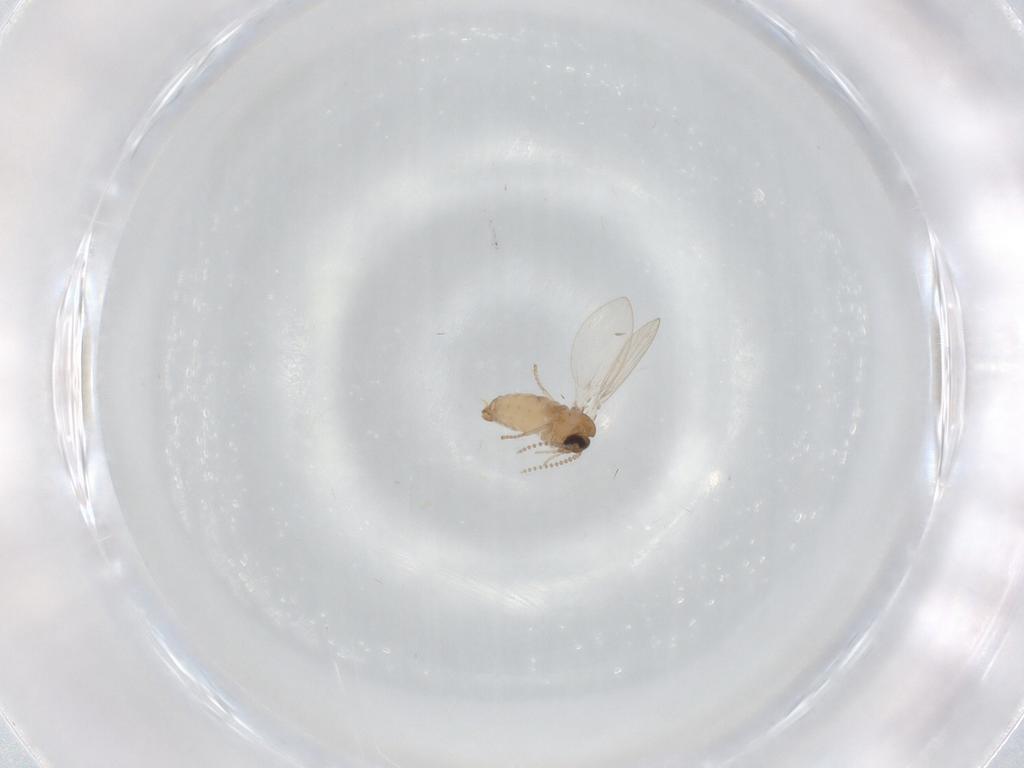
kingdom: Animalia
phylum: Arthropoda
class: Insecta
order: Diptera
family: Psychodidae
